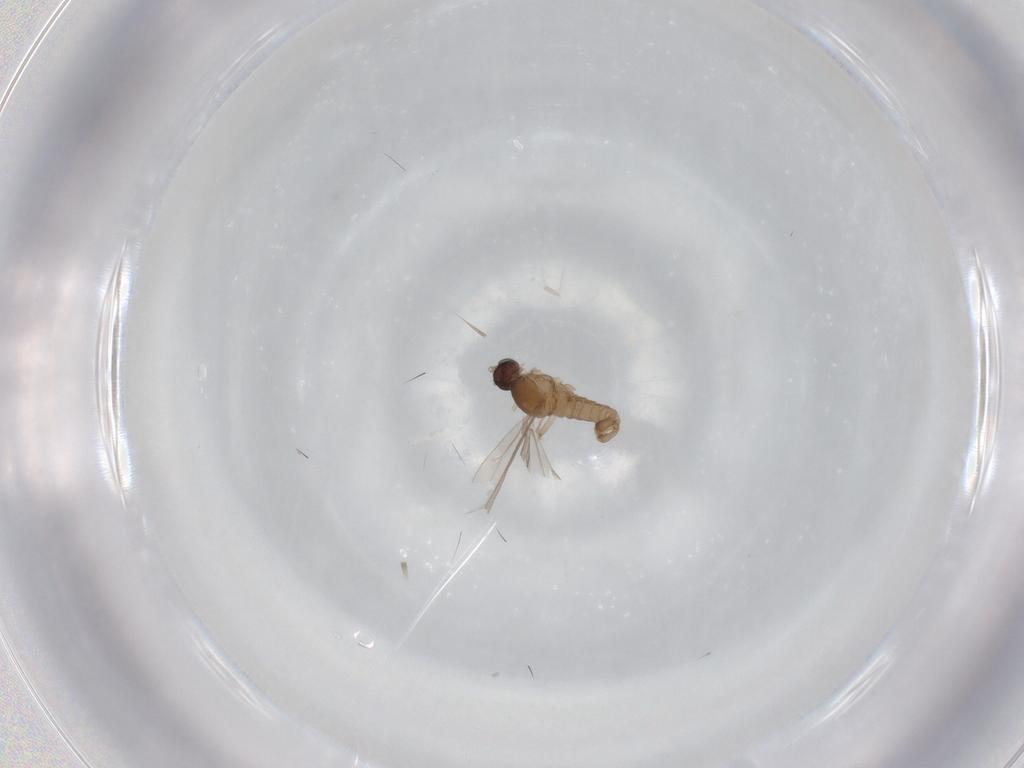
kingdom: Animalia
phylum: Arthropoda
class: Insecta
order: Diptera
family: Cecidomyiidae
